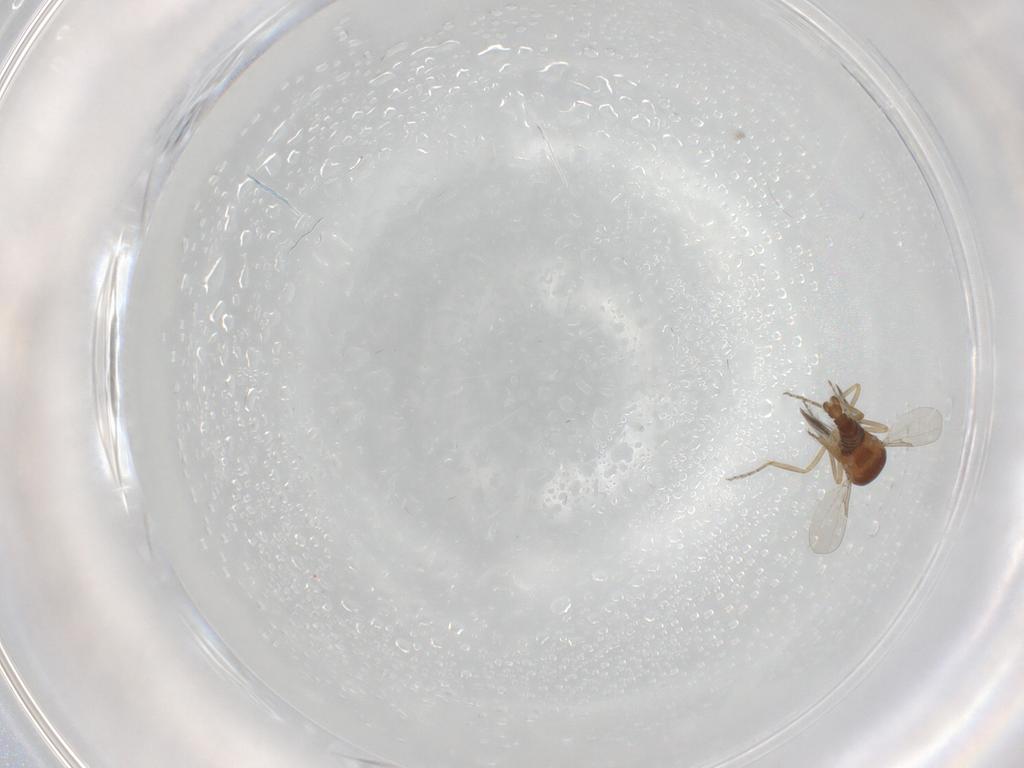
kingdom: Animalia
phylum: Arthropoda
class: Insecta
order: Diptera
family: Ceratopogonidae
